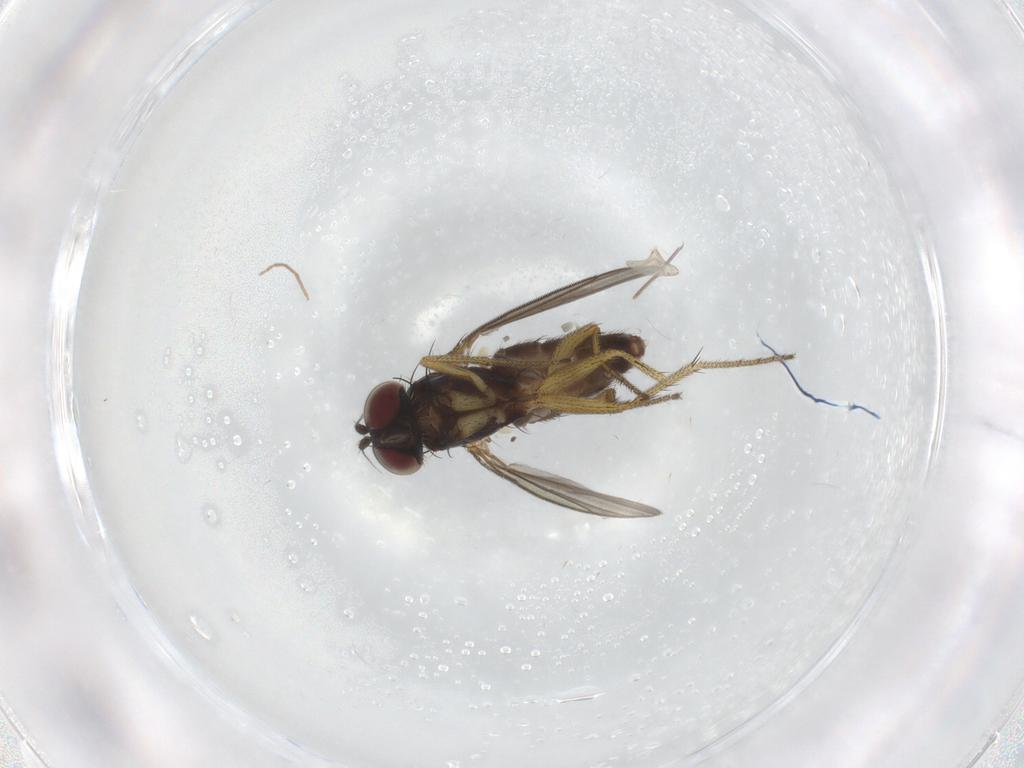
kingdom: Animalia
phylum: Arthropoda
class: Insecta
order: Diptera
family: Dolichopodidae
